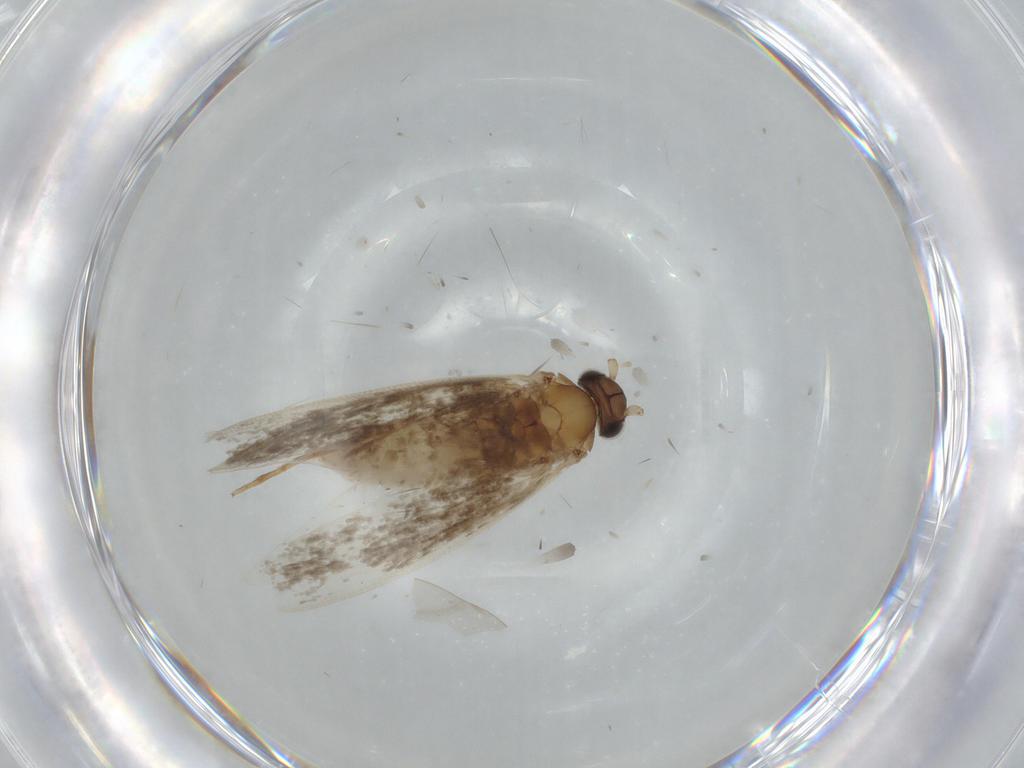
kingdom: Animalia
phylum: Arthropoda
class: Insecta
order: Lepidoptera
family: Tineidae
